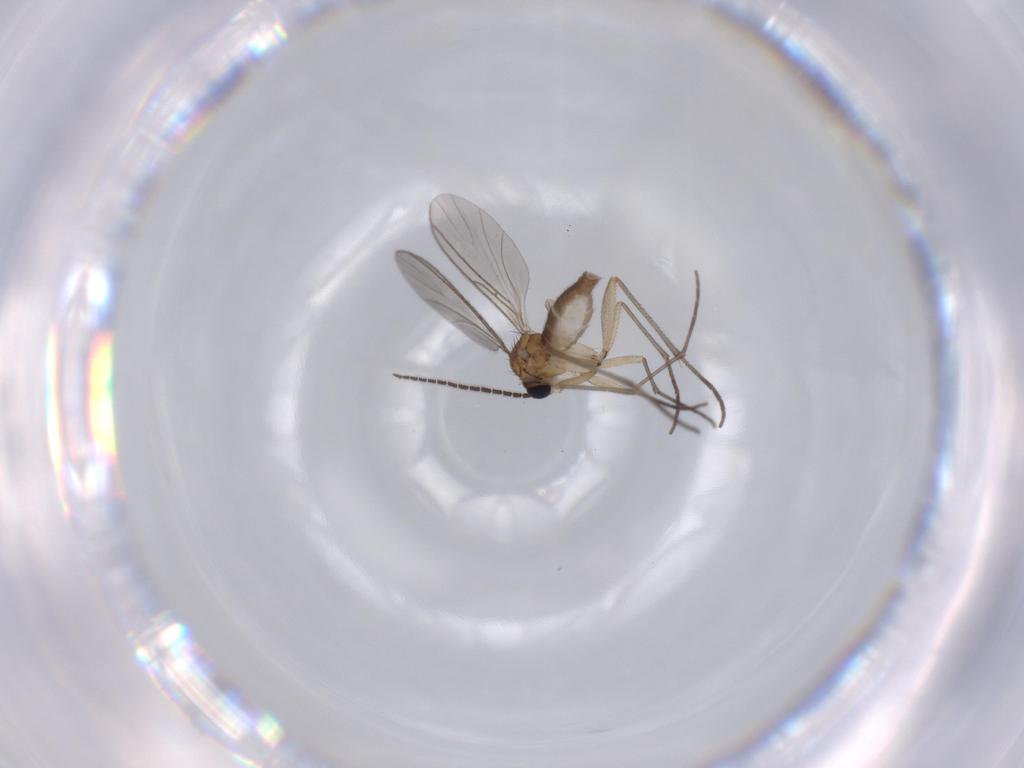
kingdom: Animalia
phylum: Arthropoda
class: Insecta
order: Diptera
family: Sciaridae
